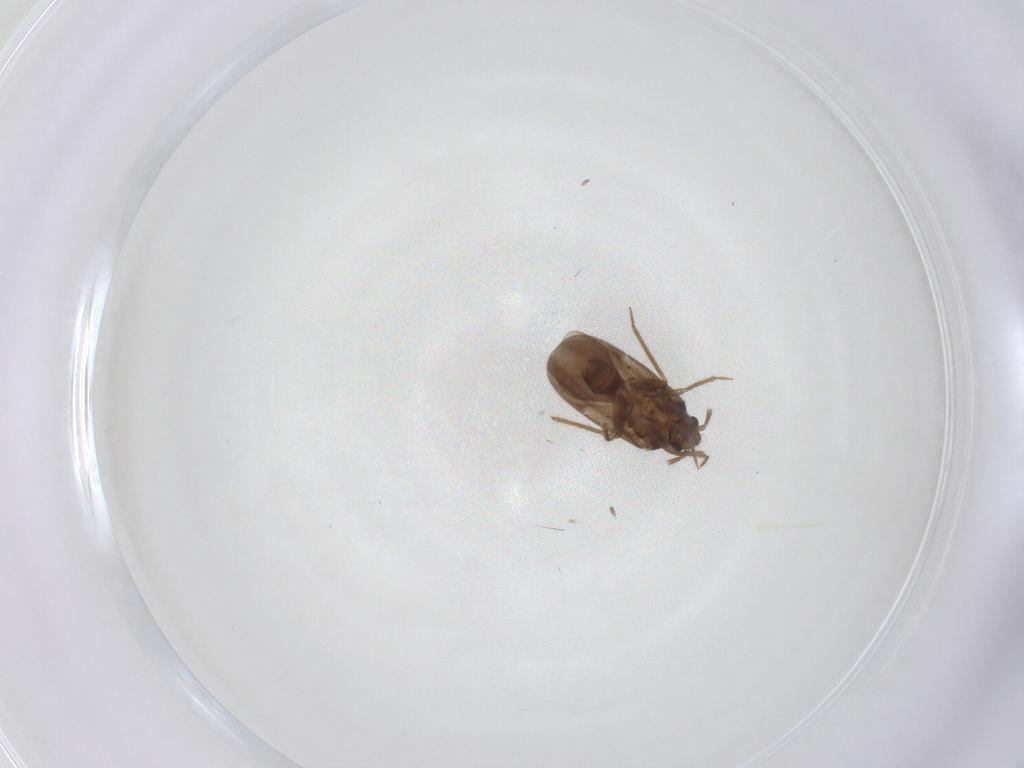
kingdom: Animalia
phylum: Arthropoda
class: Insecta
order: Hemiptera
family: Ceratocombidae
